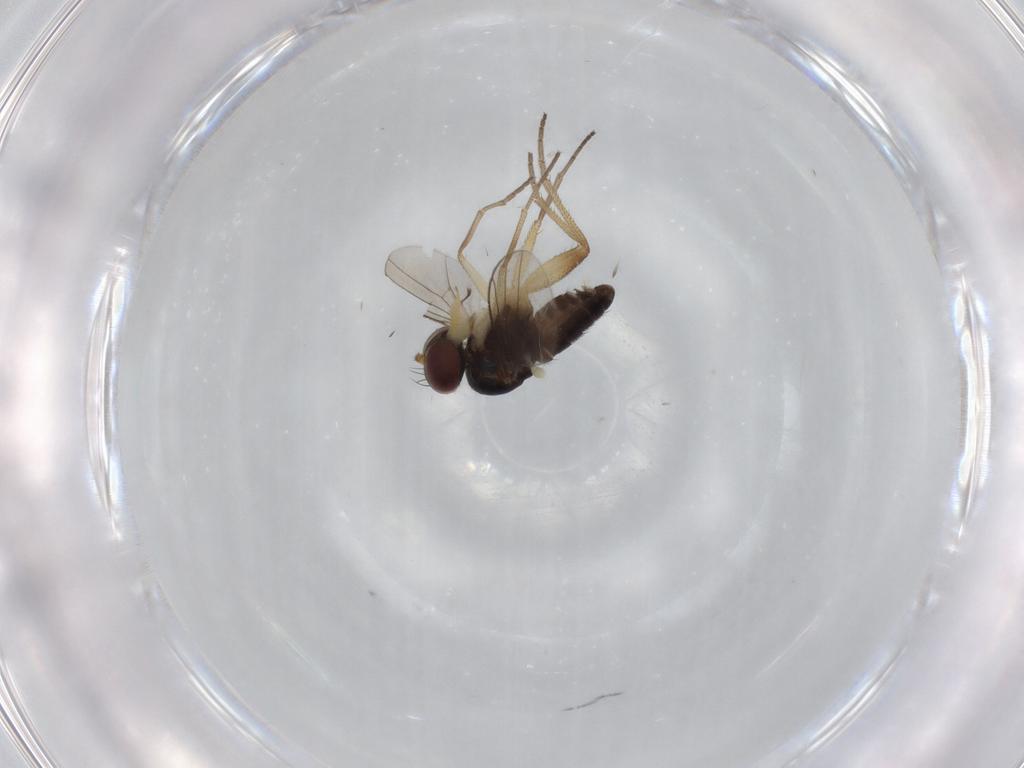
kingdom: Animalia
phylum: Arthropoda
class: Insecta
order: Diptera
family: Dolichopodidae
